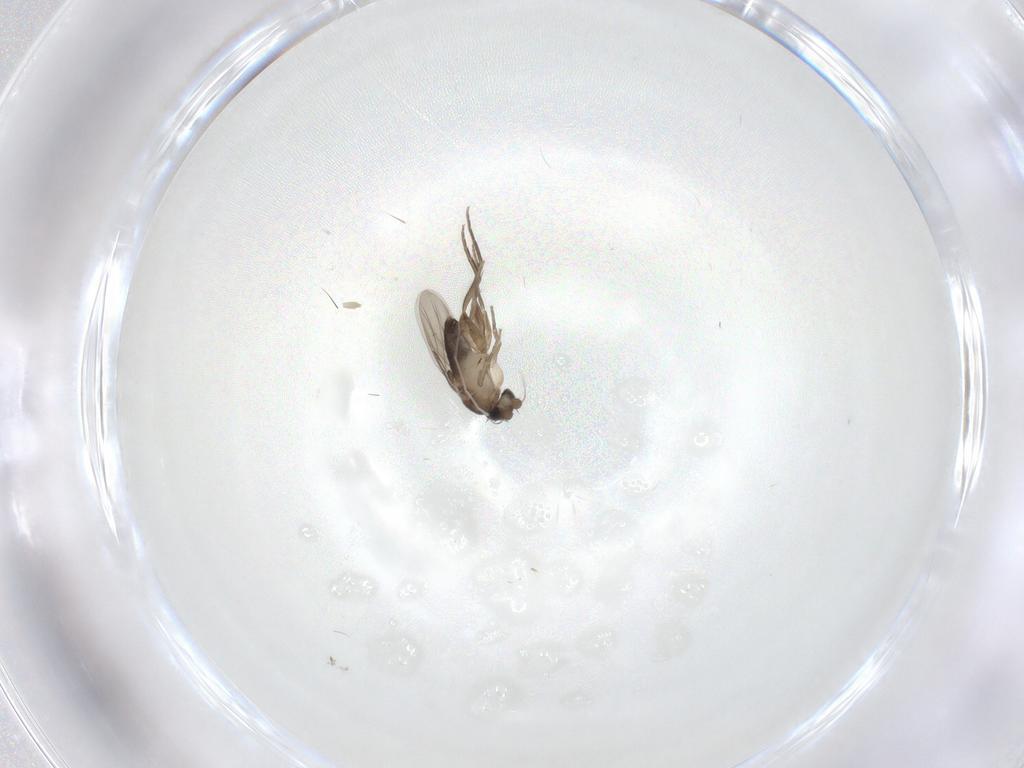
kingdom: Animalia
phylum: Arthropoda
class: Insecta
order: Diptera
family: Phoridae
